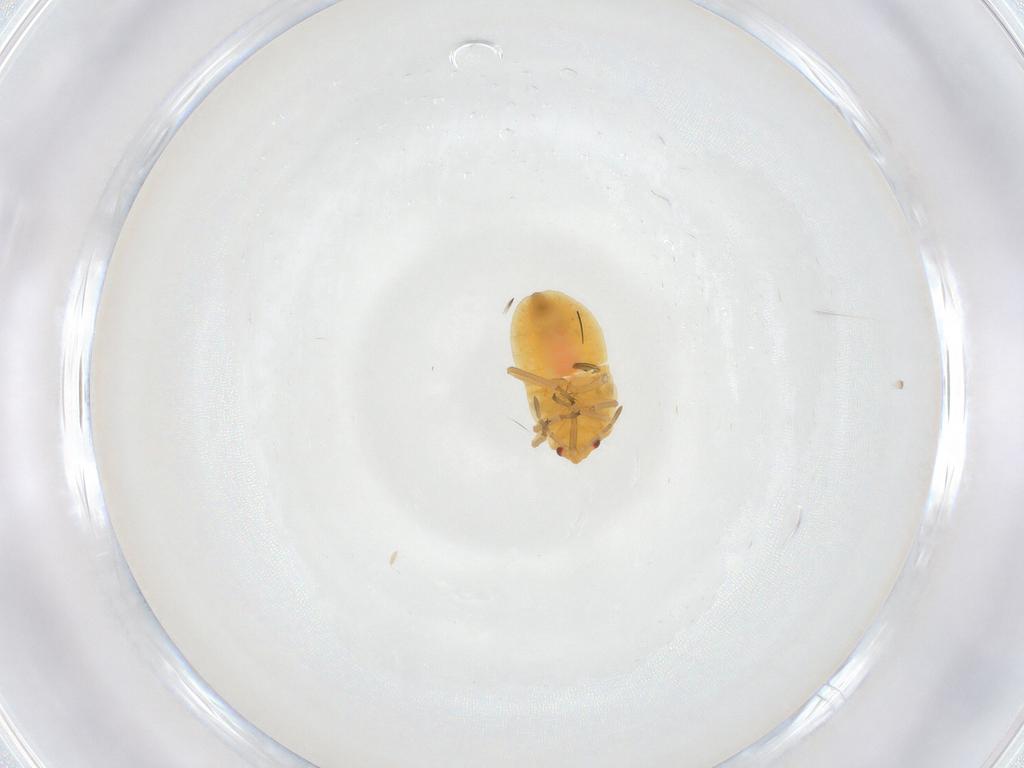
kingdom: Animalia
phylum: Arthropoda
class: Insecta
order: Hemiptera
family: Anthocoridae
